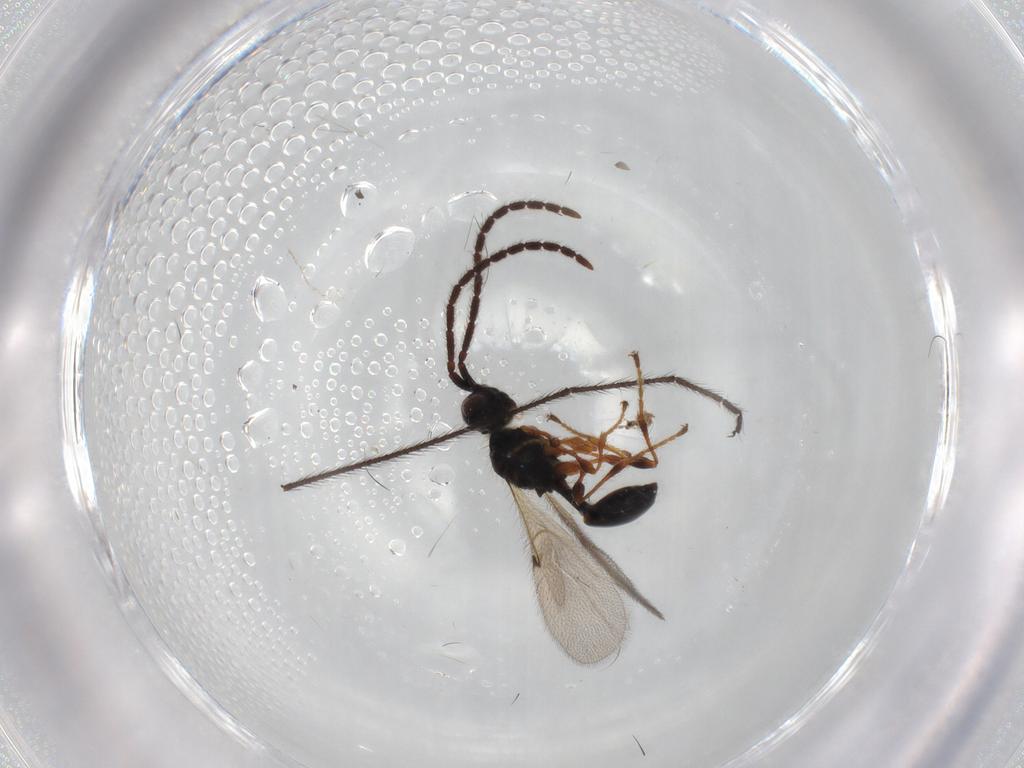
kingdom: Animalia
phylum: Arthropoda
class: Insecta
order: Hymenoptera
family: Diapriidae
